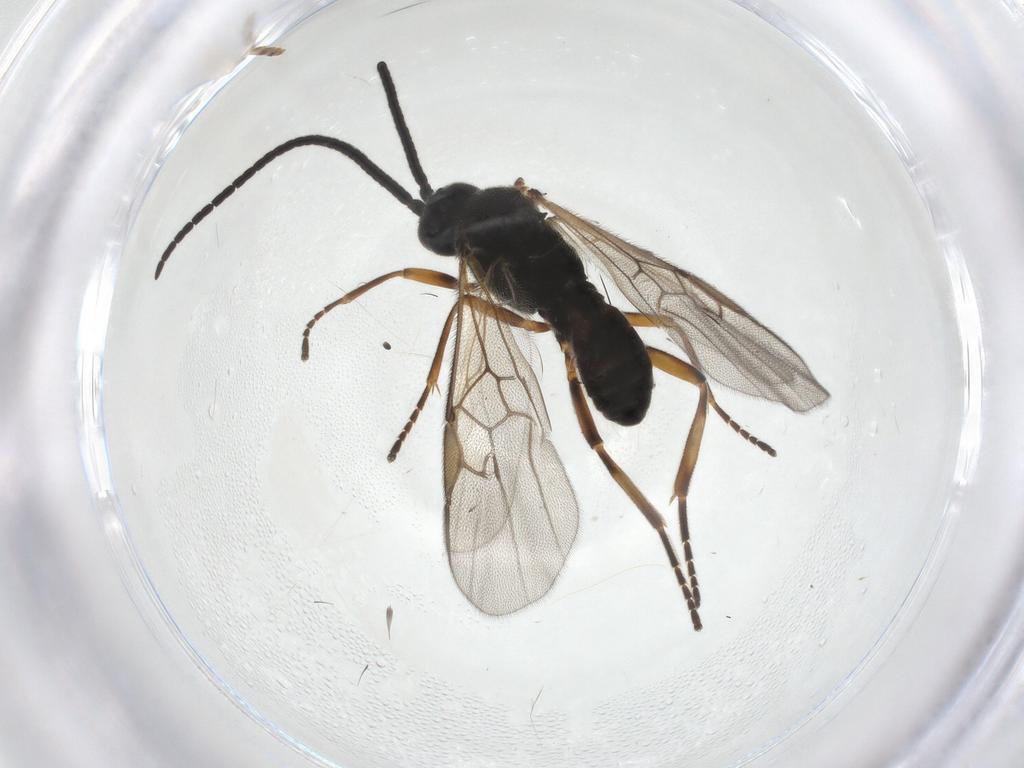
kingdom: Animalia
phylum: Arthropoda
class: Insecta
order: Hymenoptera
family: Braconidae
